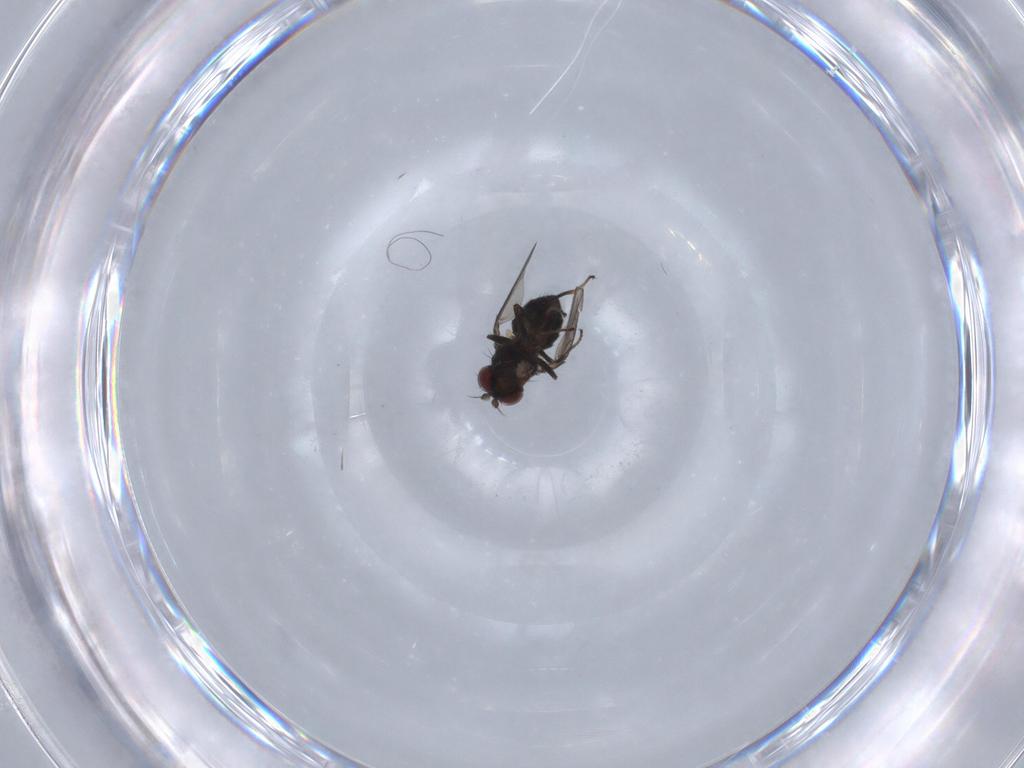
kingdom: Animalia
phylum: Arthropoda
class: Insecta
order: Diptera
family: Ephydridae
